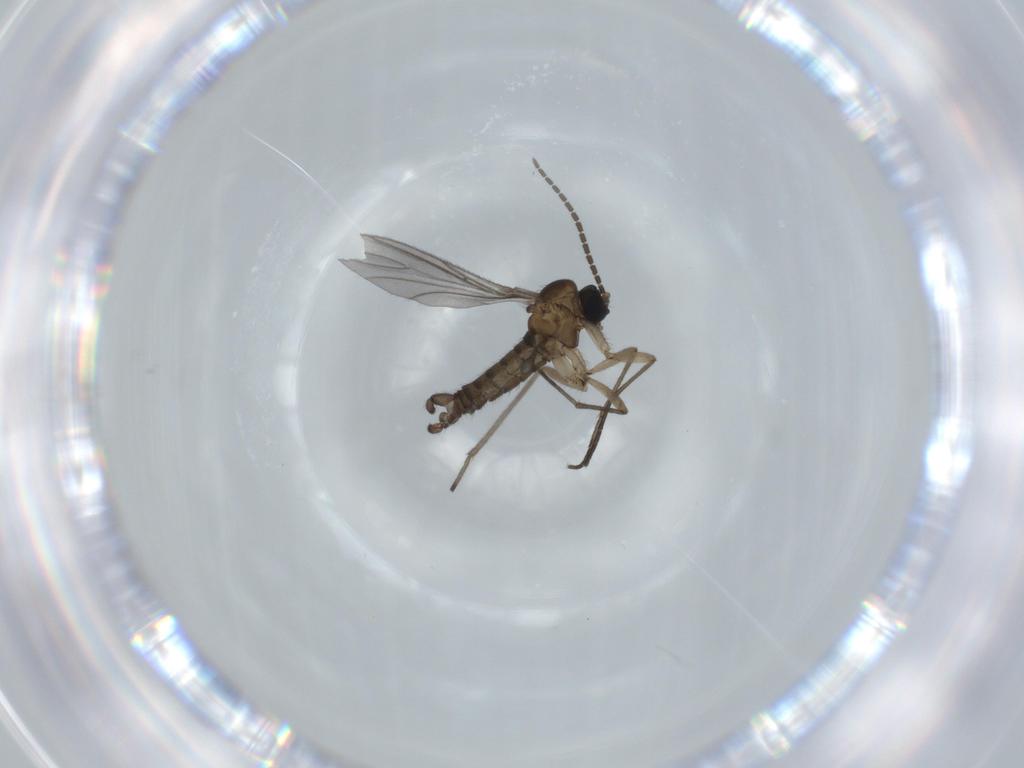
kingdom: Animalia
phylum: Arthropoda
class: Insecta
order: Diptera
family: Sciaridae
